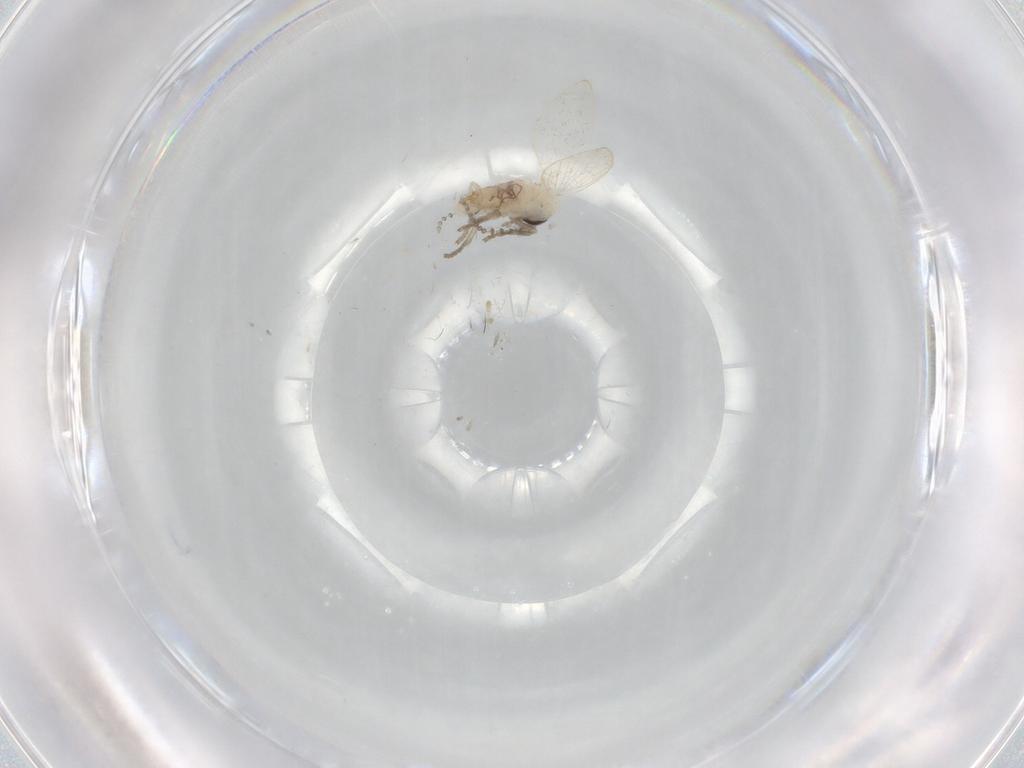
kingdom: Animalia
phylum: Arthropoda
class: Insecta
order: Diptera
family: Psychodidae
